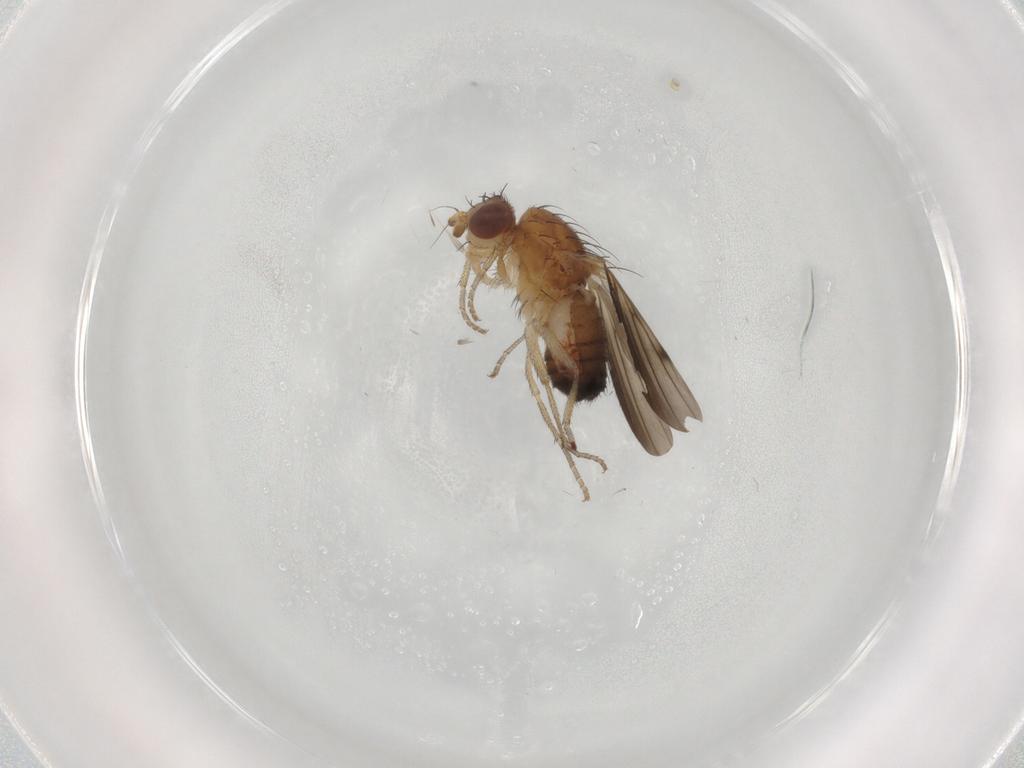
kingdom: Animalia
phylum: Arthropoda
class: Insecta
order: Diptera
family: Heleomyzidae
